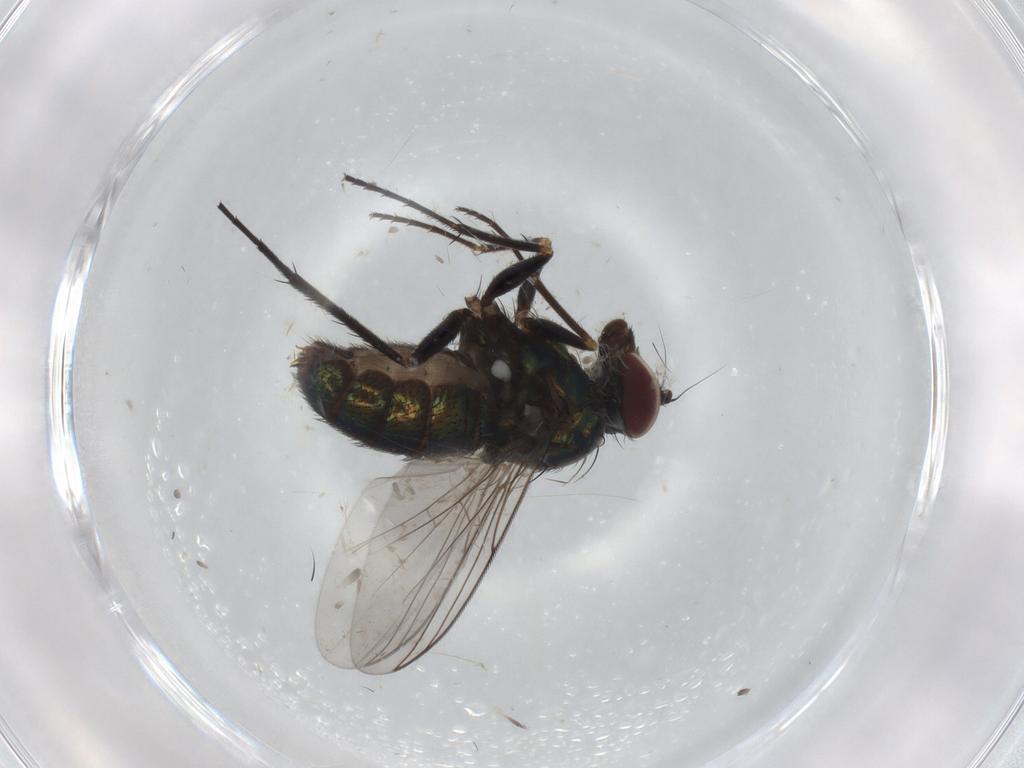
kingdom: Animalia
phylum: Arthropoda
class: Insecta
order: Diptera
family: Dolichopodidae
